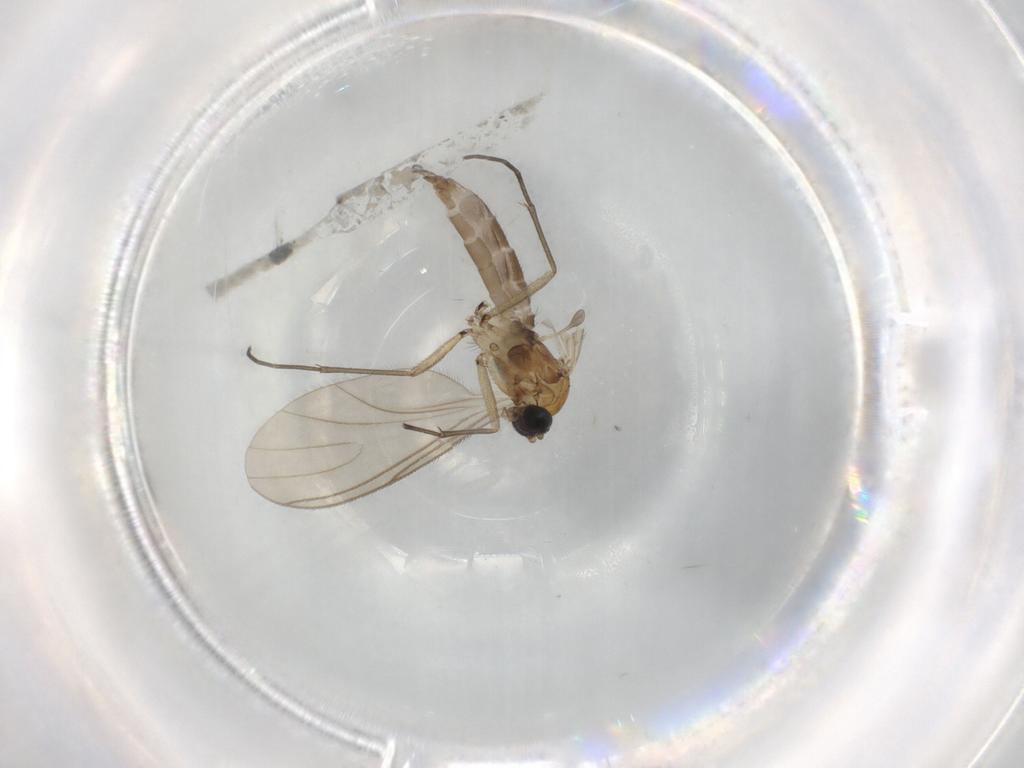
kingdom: Animalia
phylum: Arthropoda
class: Insecta
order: Diptera
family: Sciaridae
